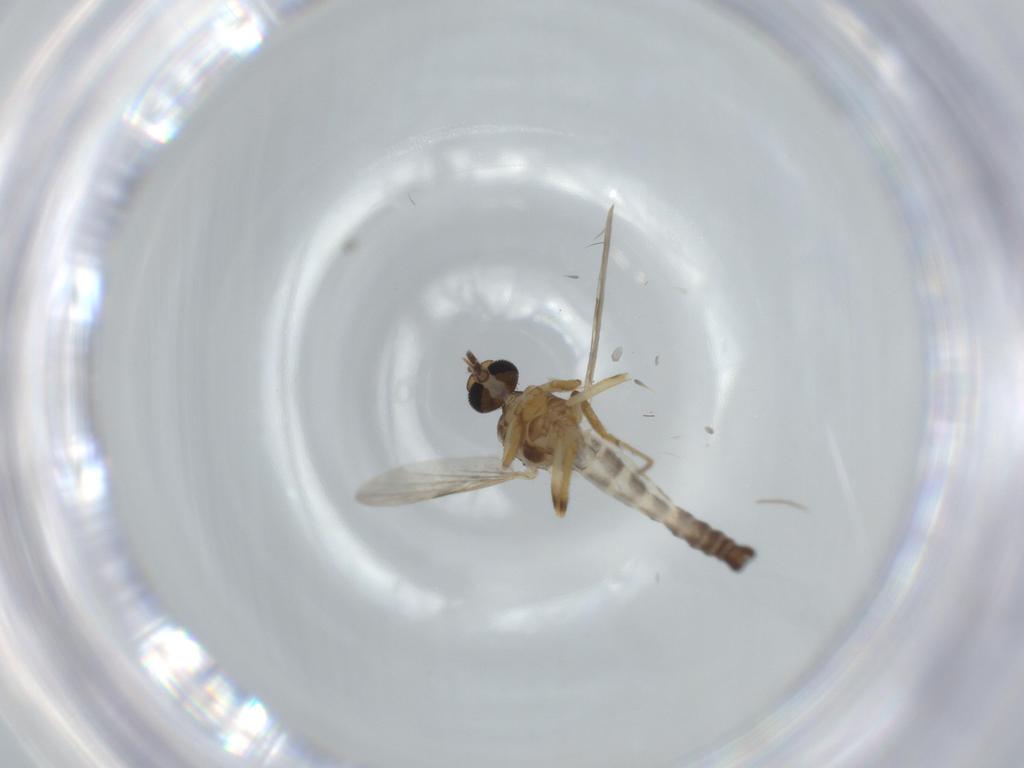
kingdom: Animalia
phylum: Arthropoda
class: Insecta
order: Diptera
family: Ceratopogonidae
